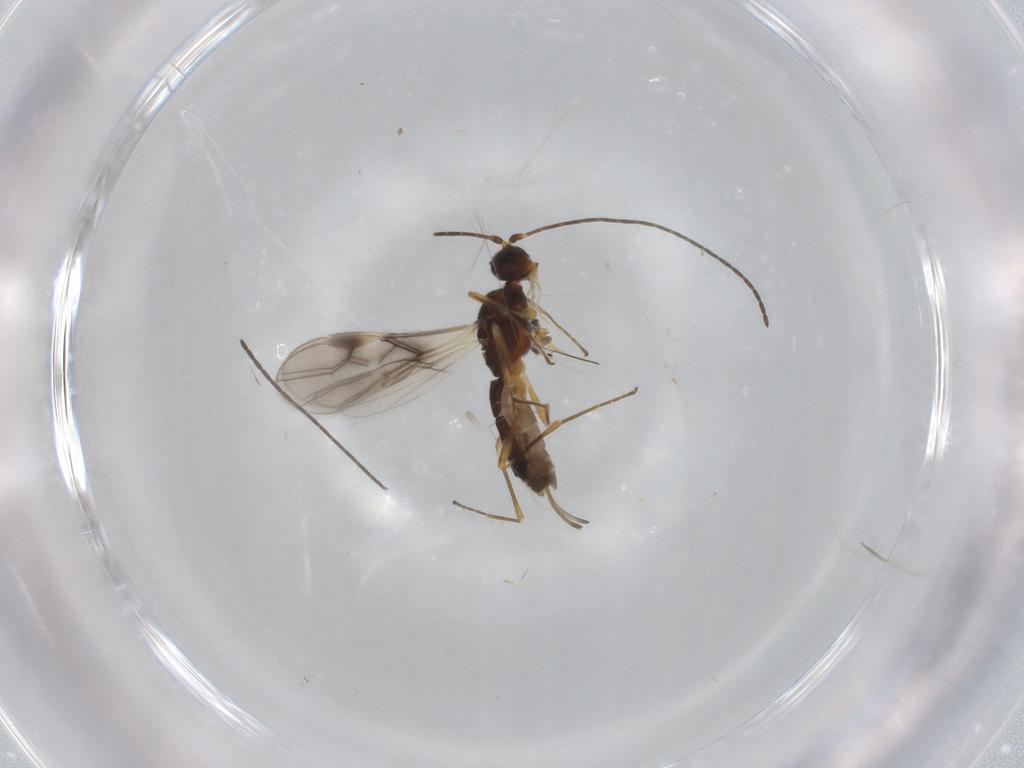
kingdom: Animalia
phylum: Arthropoda
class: Insecta
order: Hymenoptera
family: Braconidae
